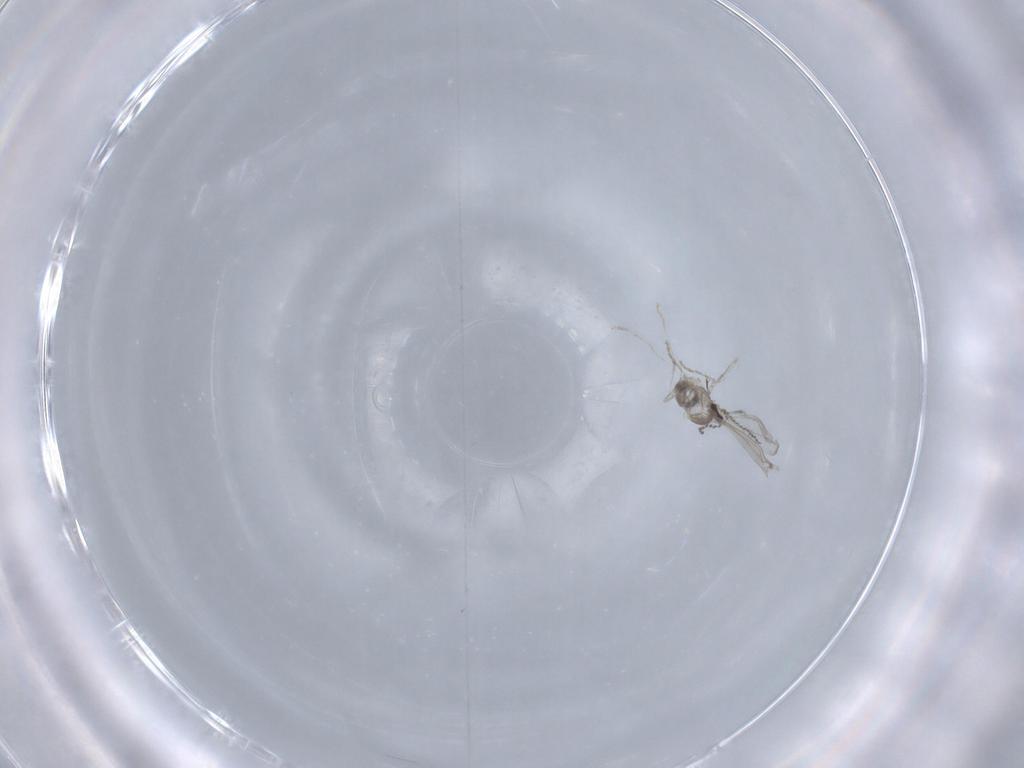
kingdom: Animalia
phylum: Arthropoda
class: Insecta
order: Diptera
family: Cecidomyiidae
